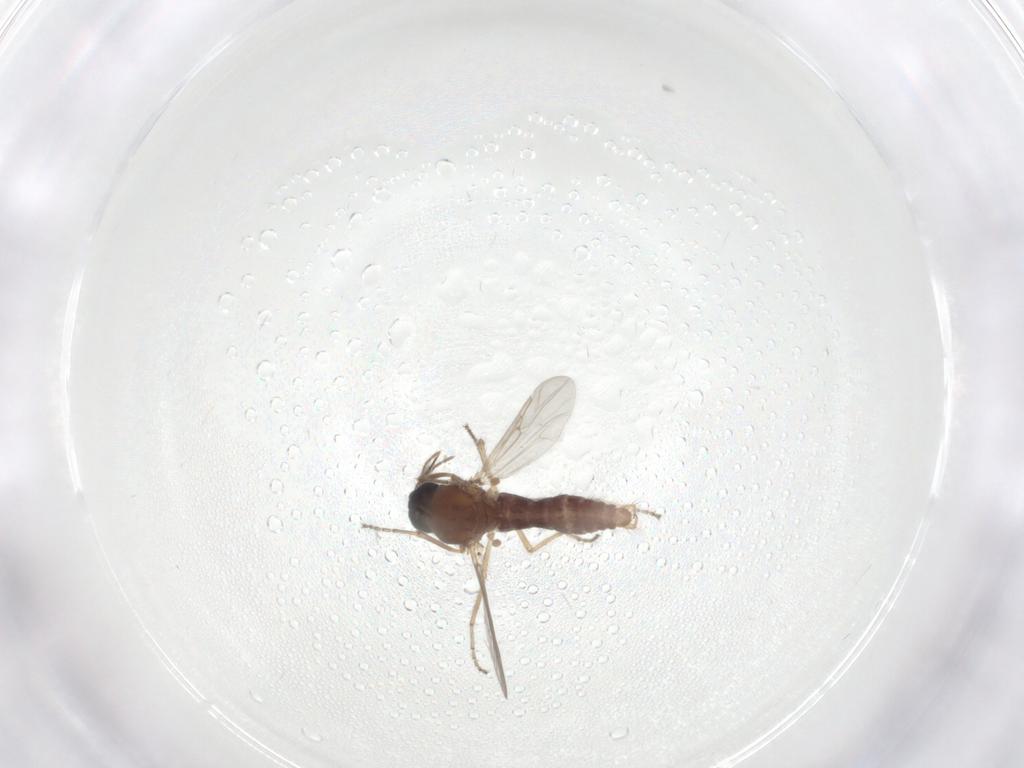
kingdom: Animalia
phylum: Arthropoda
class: Insecta
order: Diptera
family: Ceratopogonidae
